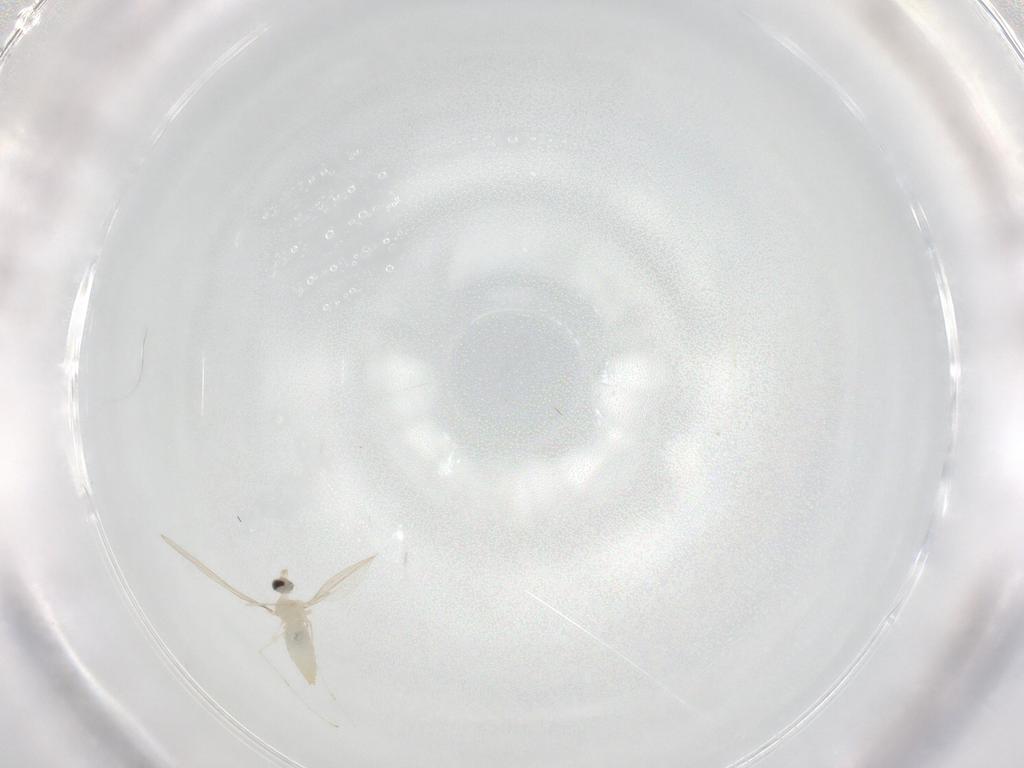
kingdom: Animalia
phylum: Arthropoda
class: Insecta
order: Diptera
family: Cecidomyiidae
